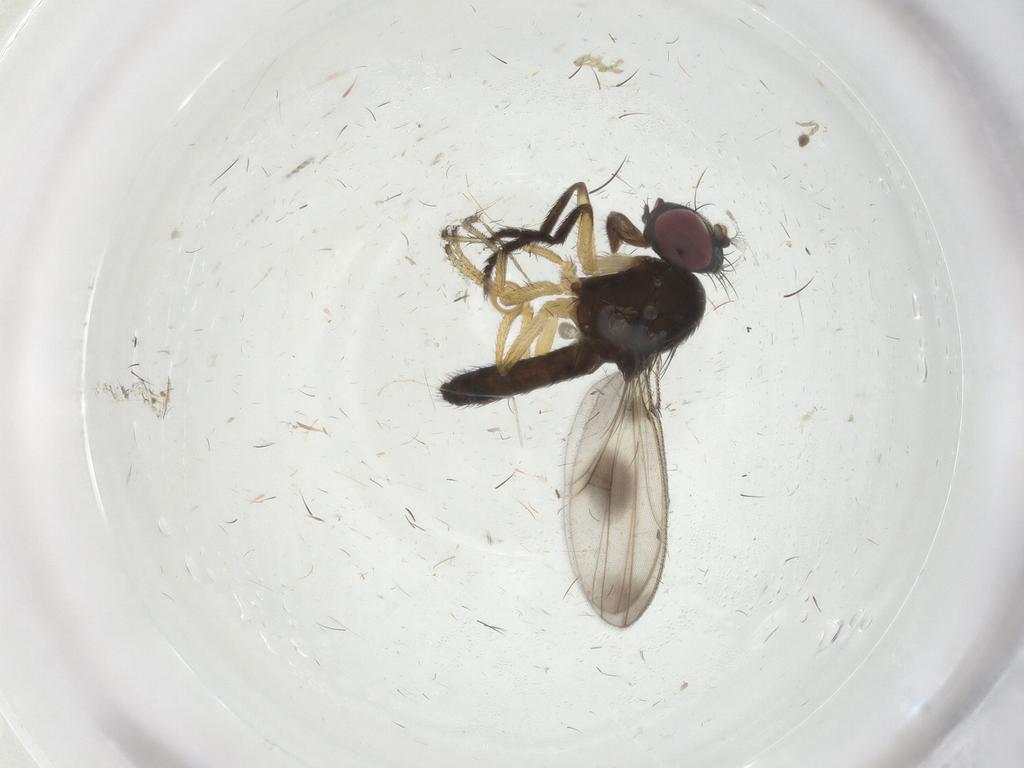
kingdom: Animalia
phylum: Arthropoda
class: Insecta
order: Diptera
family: Ephydridae
